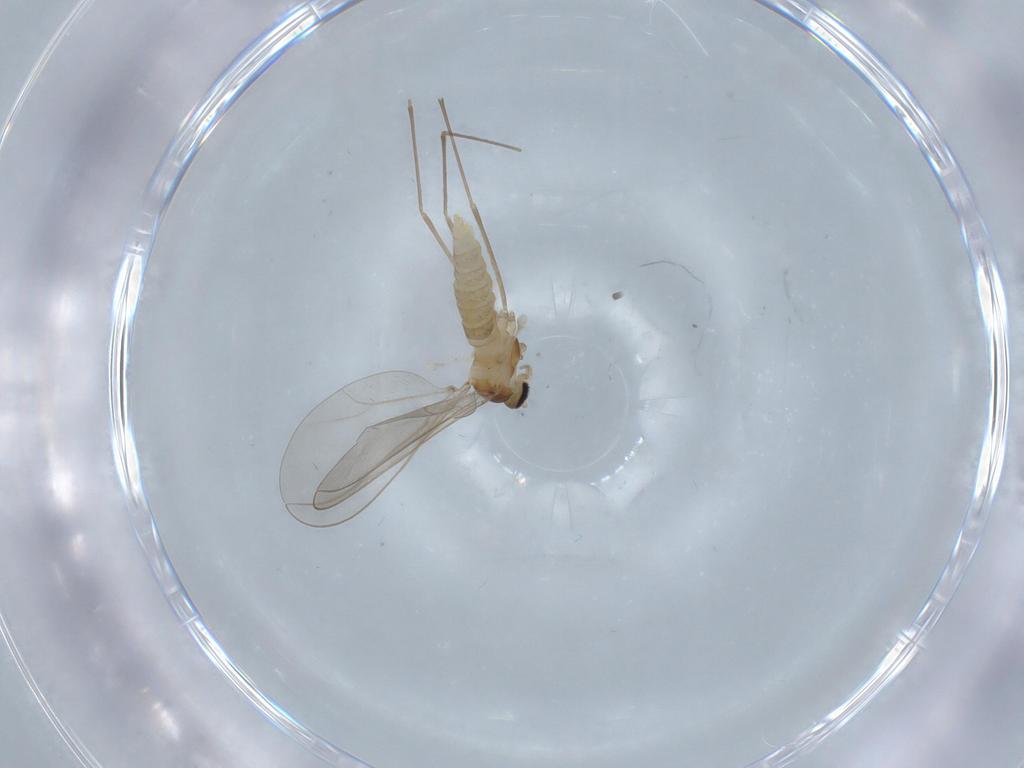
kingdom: Animalia
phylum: Arthropoda
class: Insecta
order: Diptera
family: Cecidomyiidae
